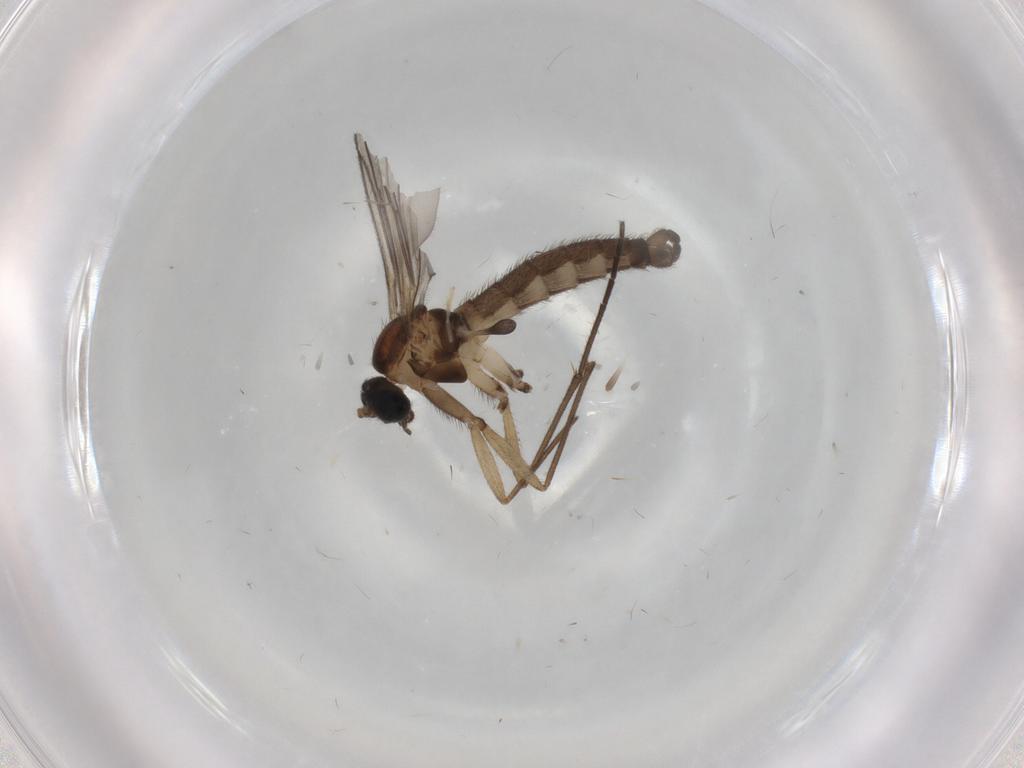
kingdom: Animalia
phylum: Arthropoda
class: Insecta
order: Diptera
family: Sciaridae
